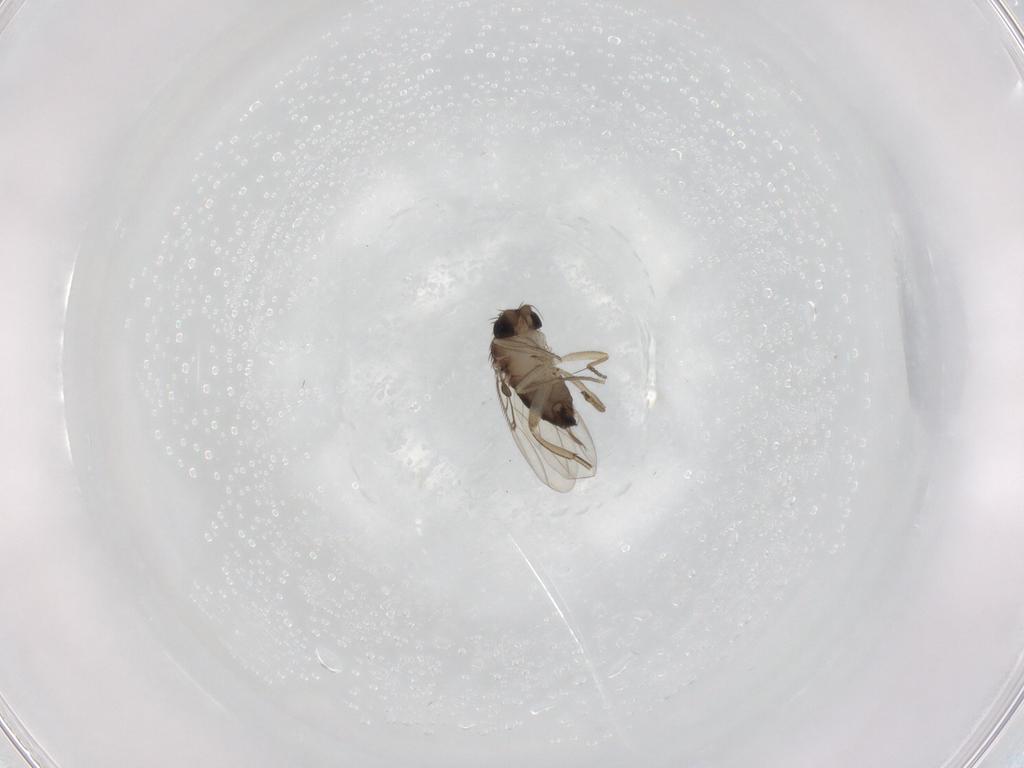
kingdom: Animalia
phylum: Arthropoda
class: Insecta
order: Diptera
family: Phoridae
